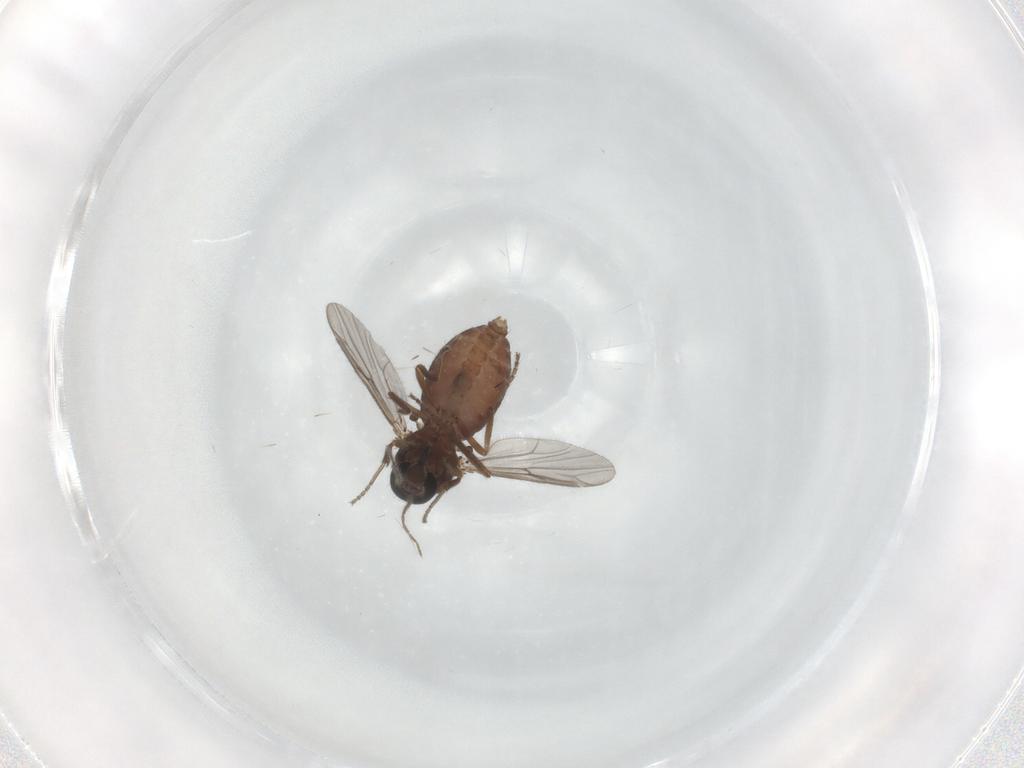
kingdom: Animalia
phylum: Arthropoda
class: Insecta
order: Diptera
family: Ceratopogonidae
